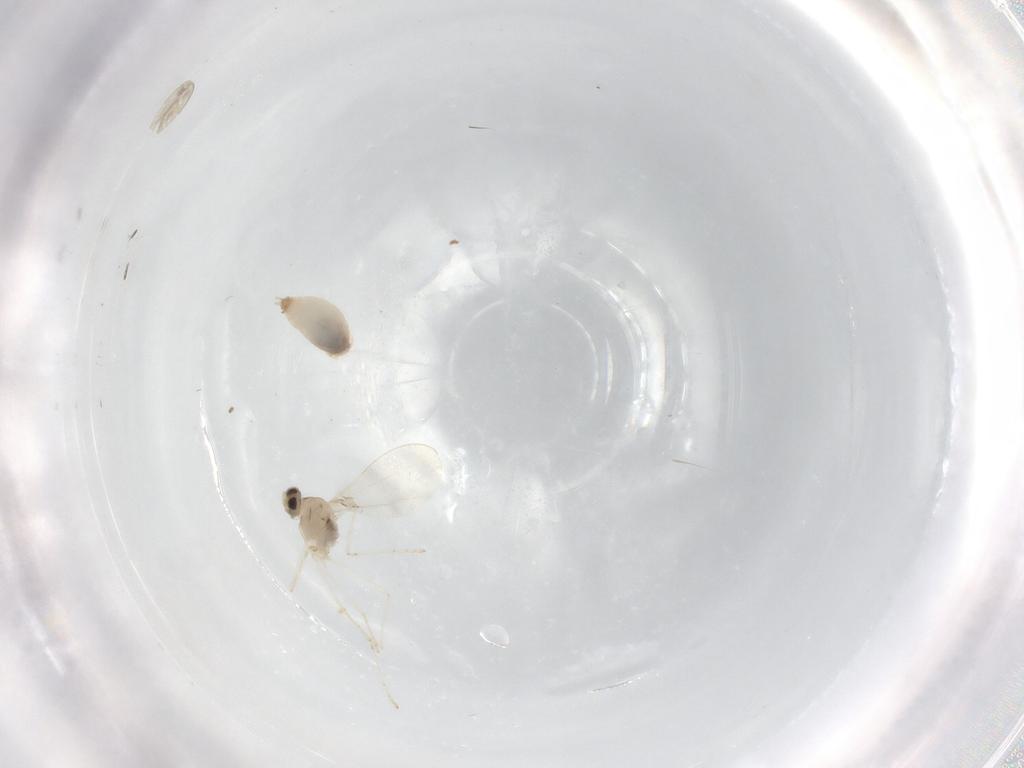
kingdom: Animalia
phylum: Arthropoda
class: Insecta
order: Diptera
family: Cecidomyiidae
